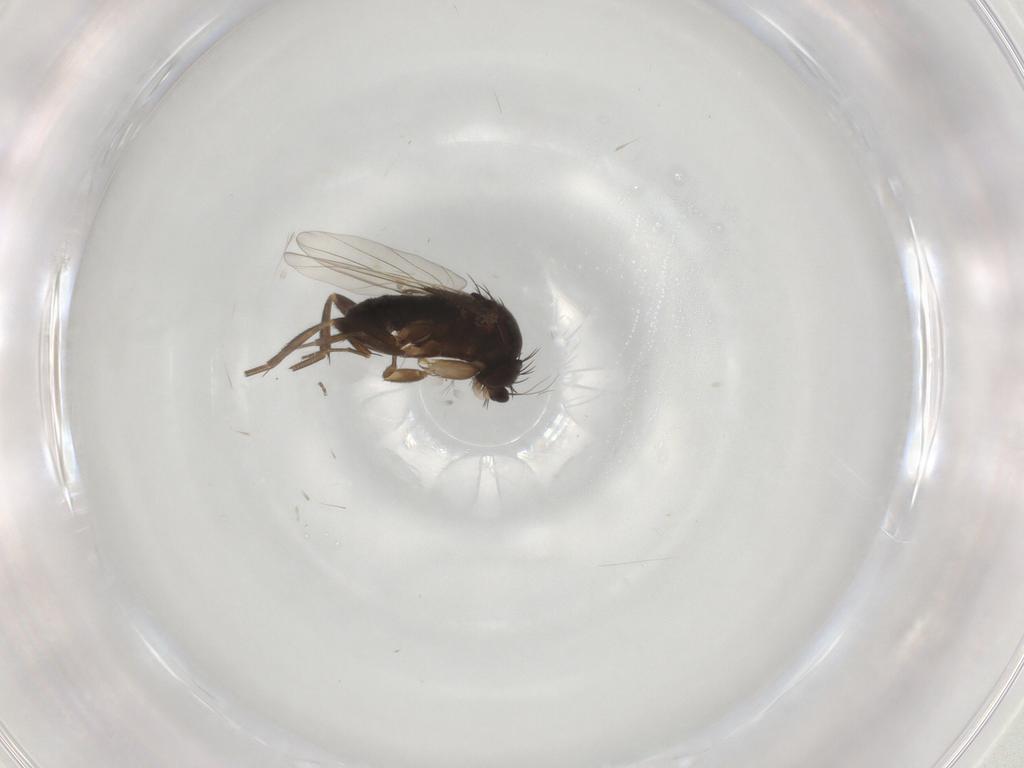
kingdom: Animalia
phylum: Arthropoda
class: Insecta
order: Diptera
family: Phoridae
